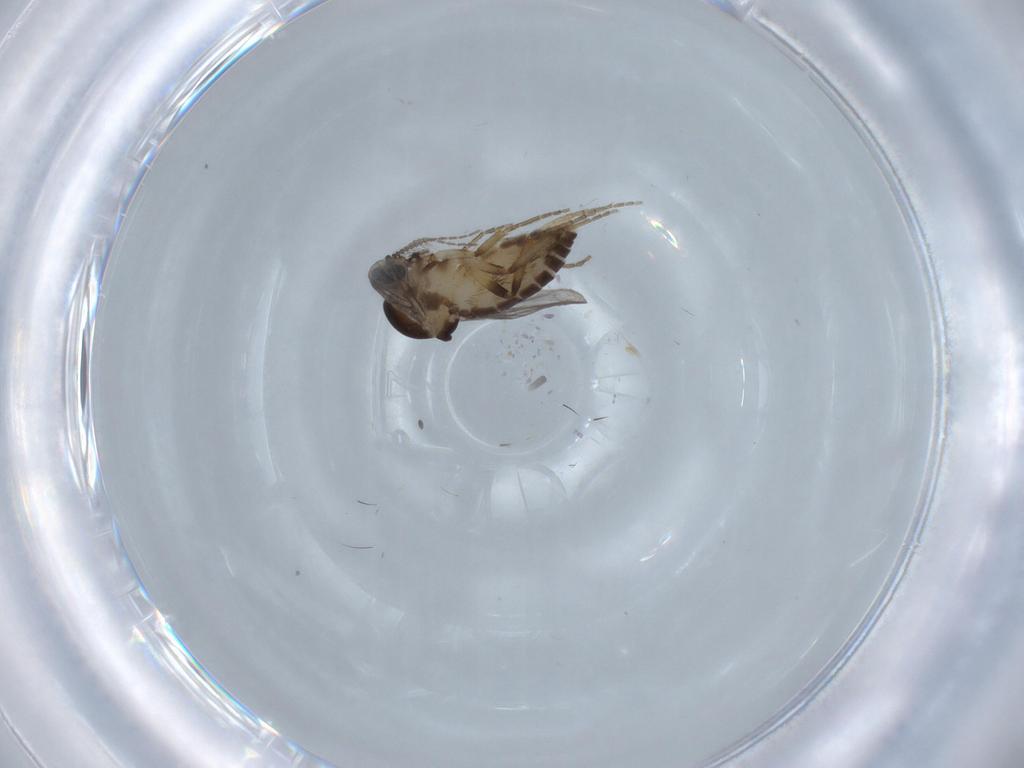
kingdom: Animalia
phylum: Arthropoda
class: Insecta
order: Diptera
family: Ceratopogonidae
